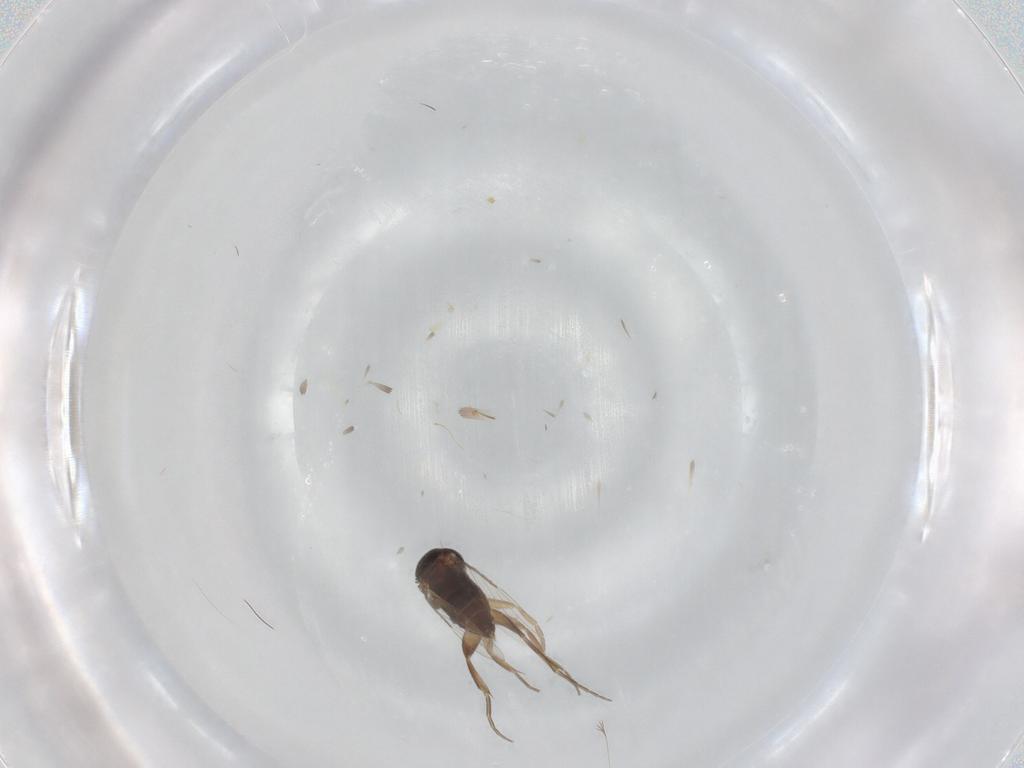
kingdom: Animalia
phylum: Arthropoda
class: Insecta
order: Diptera
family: Phoridae
